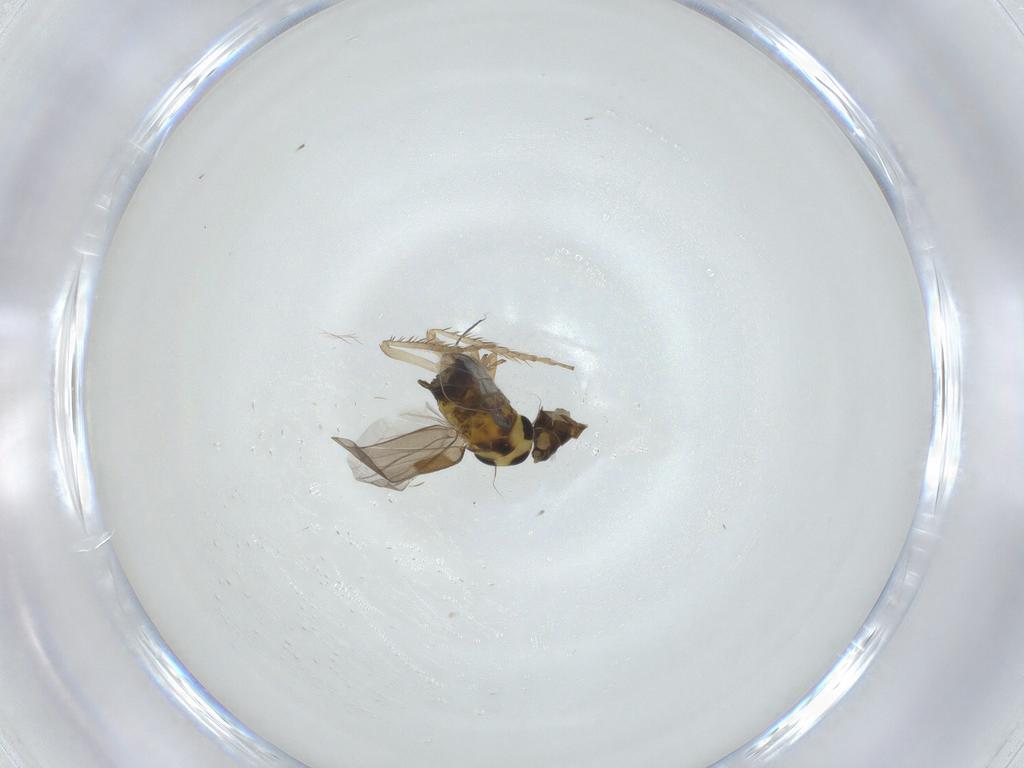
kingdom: Animalia
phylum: Arthropoda
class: Insecta
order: Hemiptera
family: Cicadellidae
